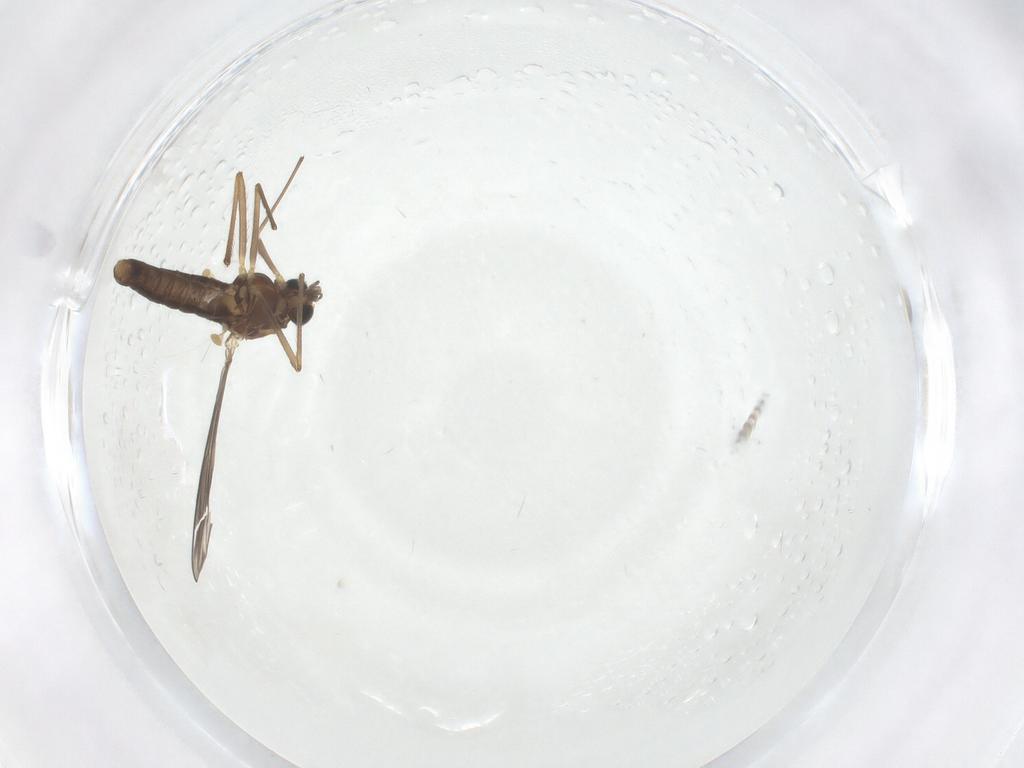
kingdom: Animalia
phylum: Arthropoda
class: Insecta
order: Diptera
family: Chironomidae
